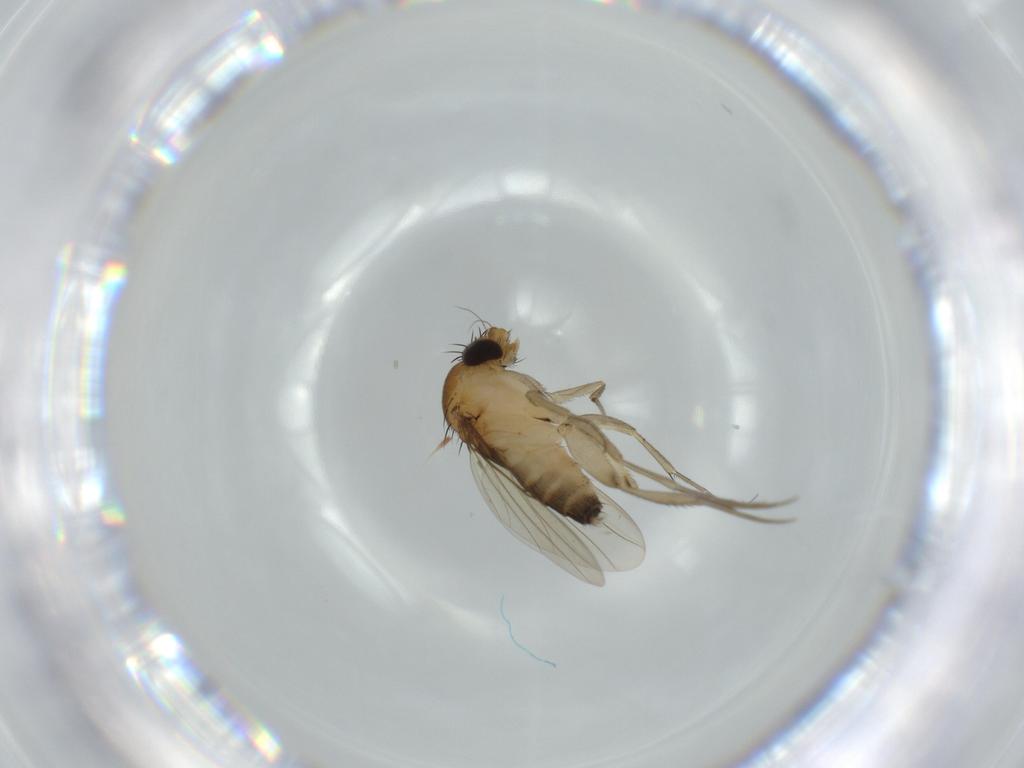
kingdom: Animalia
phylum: Arthropoda
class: Insecta
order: Diptera
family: Phoridae
